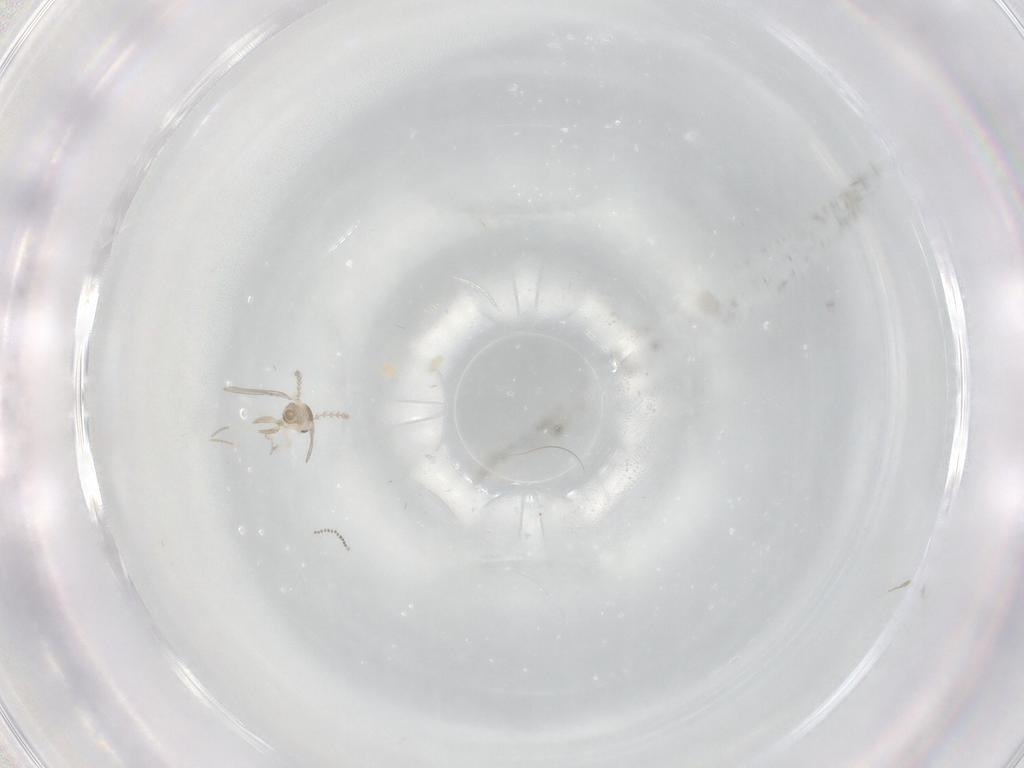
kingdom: Animalia
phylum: Arthropoda
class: Insecta
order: Diptera
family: Cecidomyiidae
